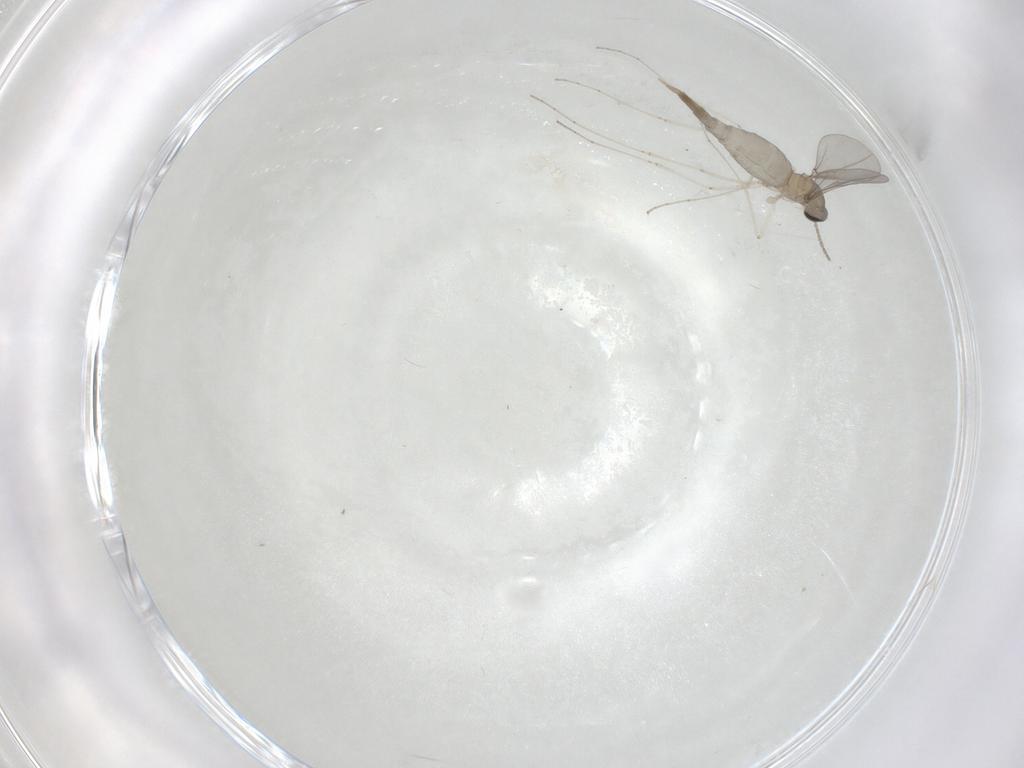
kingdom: Animalia
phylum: Arthropoda
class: Insecta
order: Diptera
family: Cecidomyiidae
